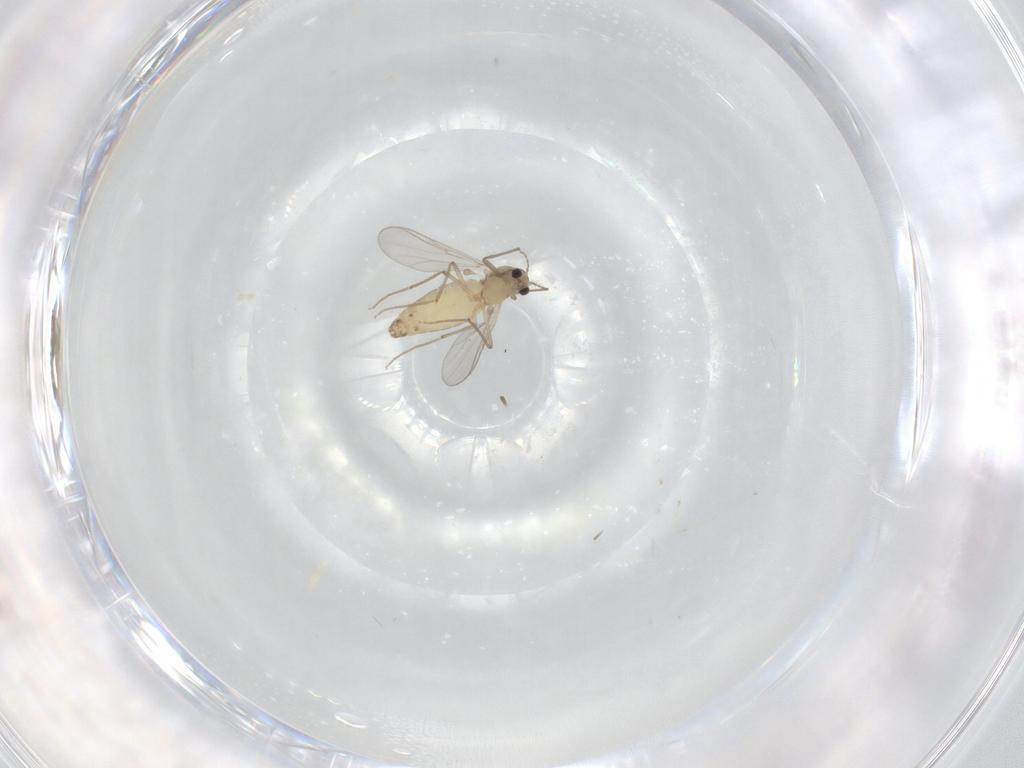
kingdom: Animalia
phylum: Arthropoda
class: Insecta
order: Diptera
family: Cecidomyiidae
